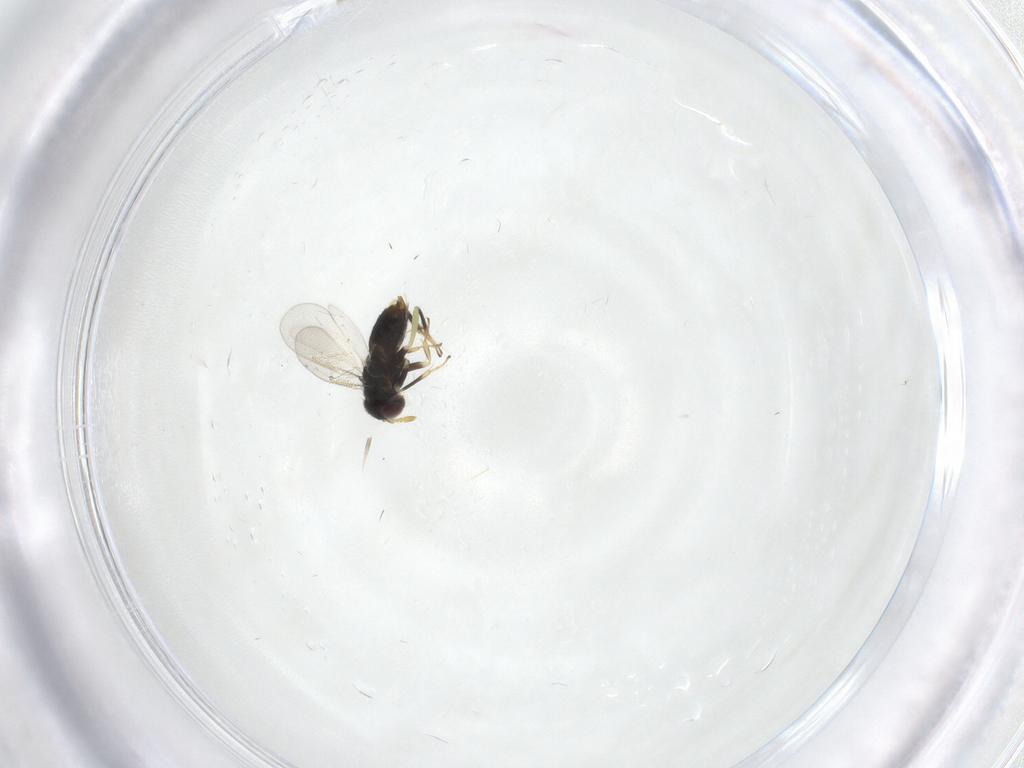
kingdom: Animalia
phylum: Arthropoda
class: Insecta
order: Hymenoptera
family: Aphelinidae
